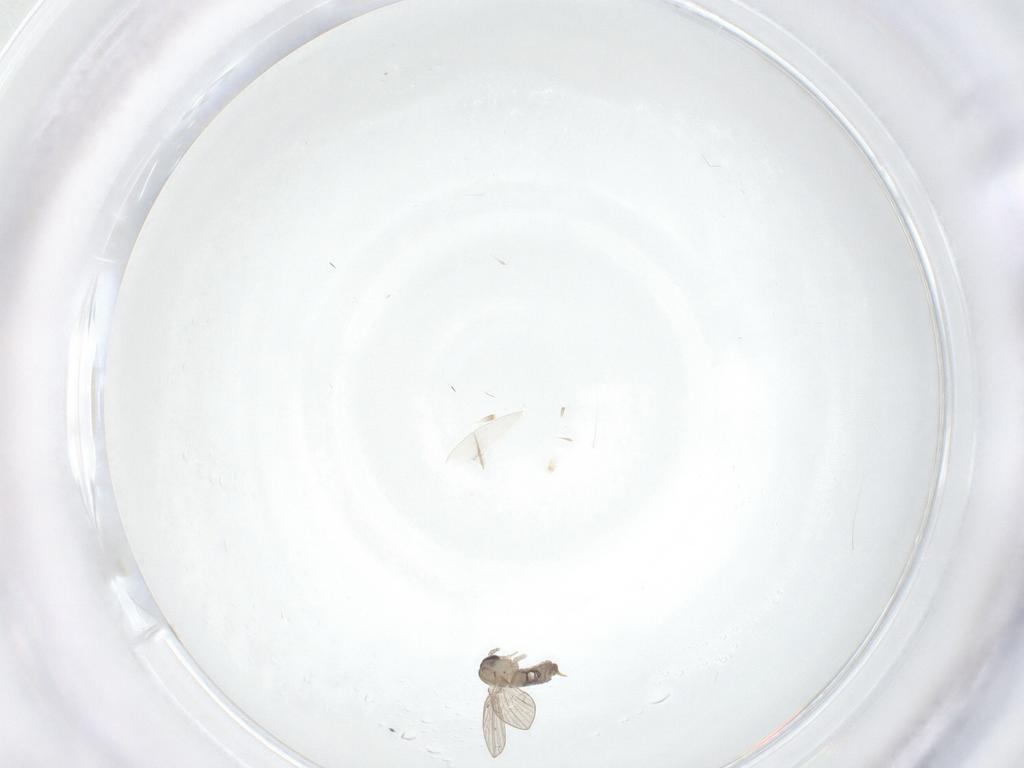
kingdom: Animalia
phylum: Arthropoda
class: Insecta
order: Diptera
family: Psychodidae
